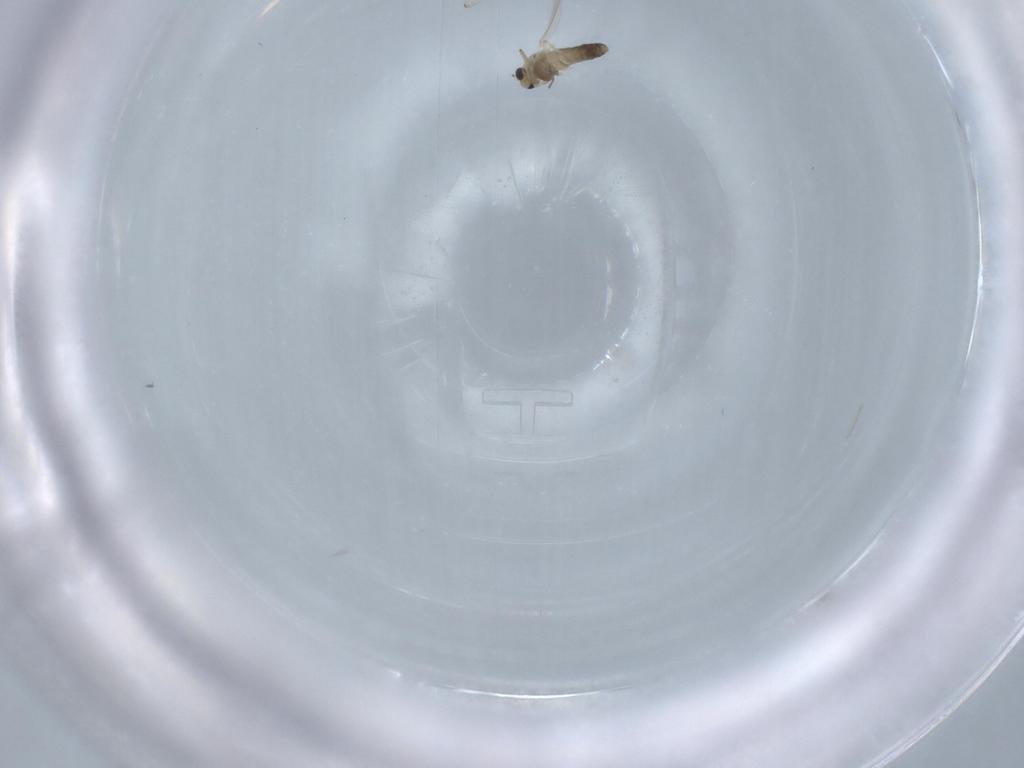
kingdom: Animalia
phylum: Arthropoda
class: Insecta
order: Diptera
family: Chironomidae
